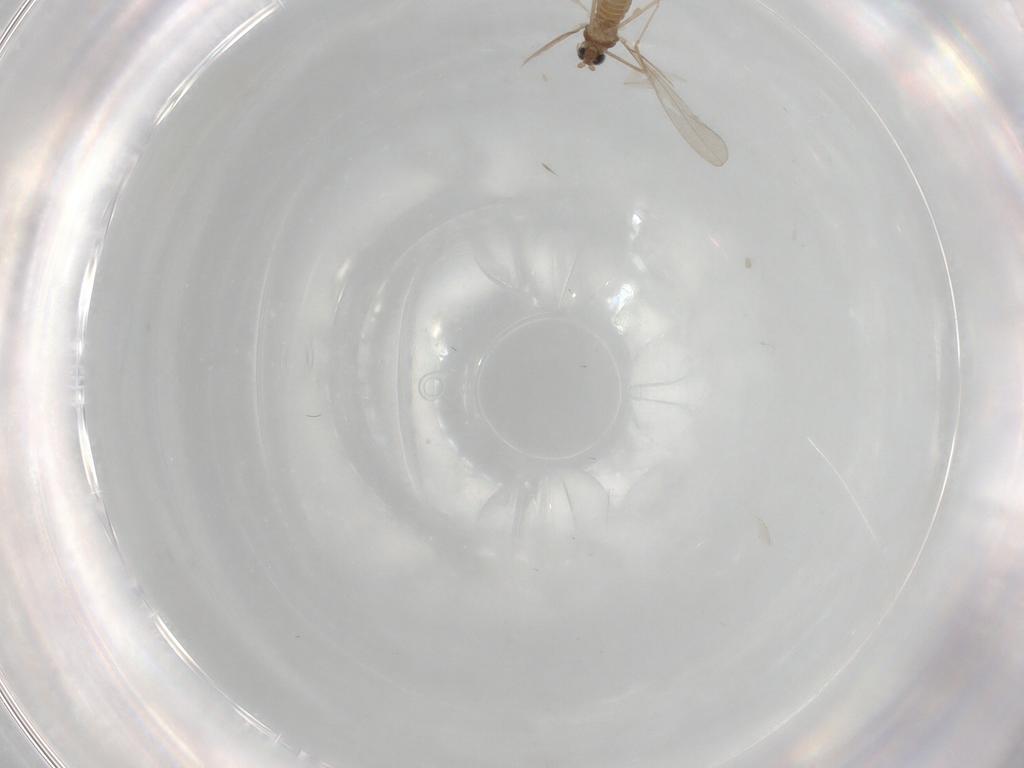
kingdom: Animalia
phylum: Arthropoda
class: Insecta
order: Diptera
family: Cecidomyiidae
